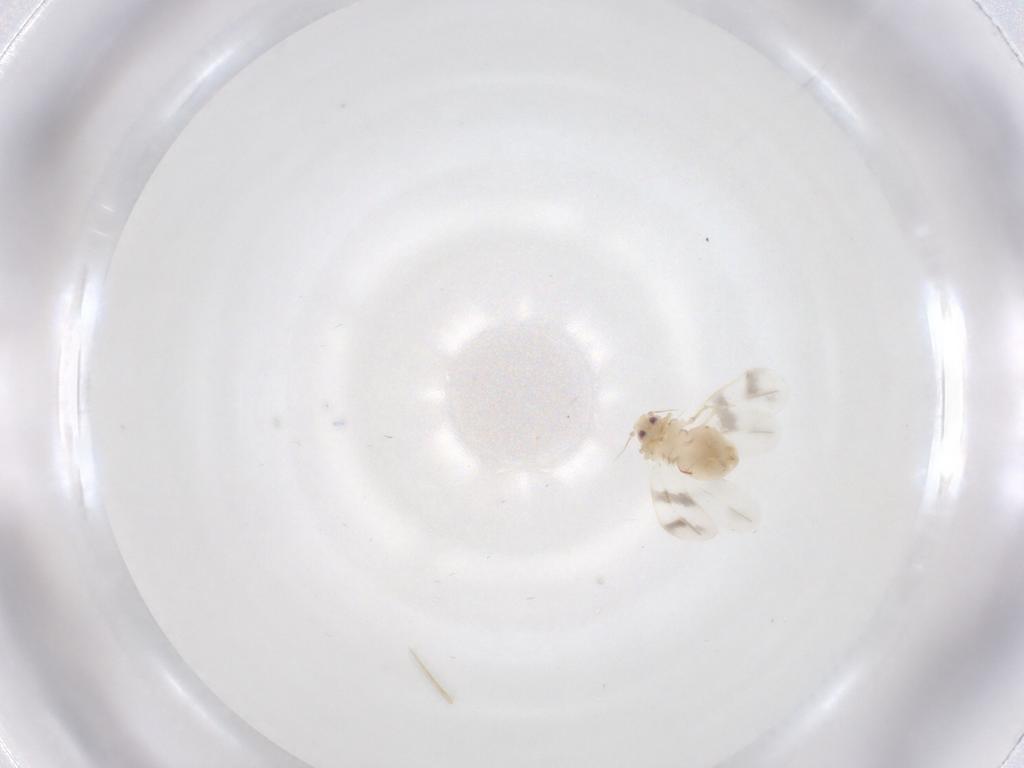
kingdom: Animalia
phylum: Arthropoda
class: Insecta
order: Hemiptera
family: Aleyrodidae
